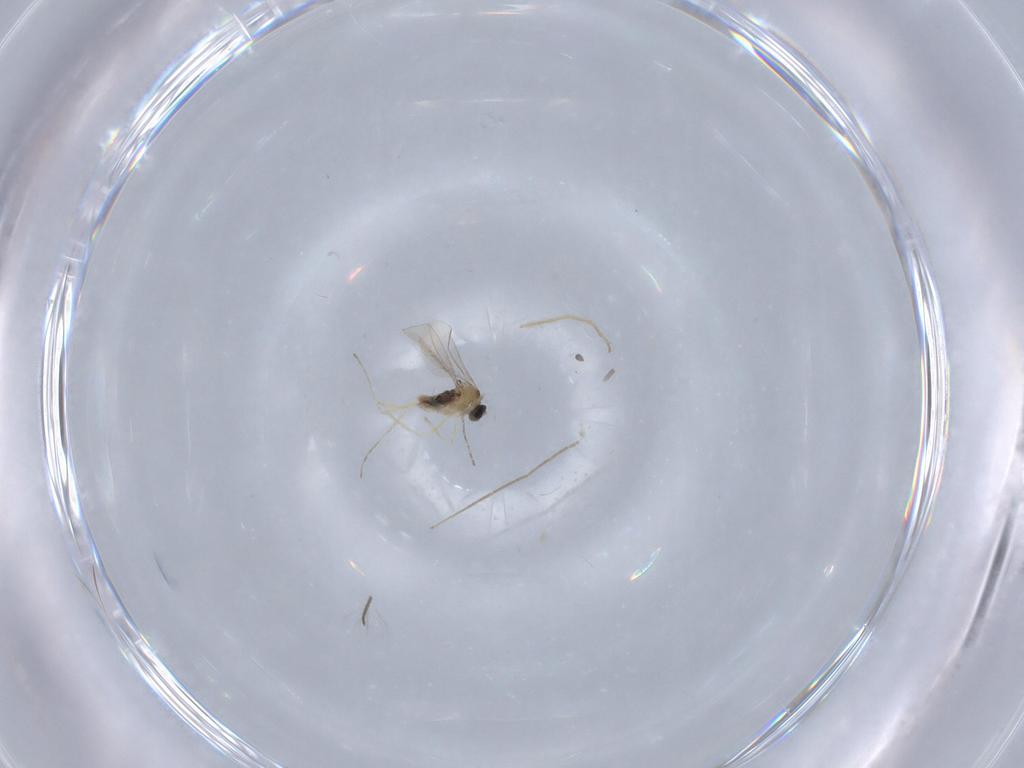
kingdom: Animalia
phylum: Arthropoda
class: Insecta
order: Diptera
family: Cecidomyiidae
